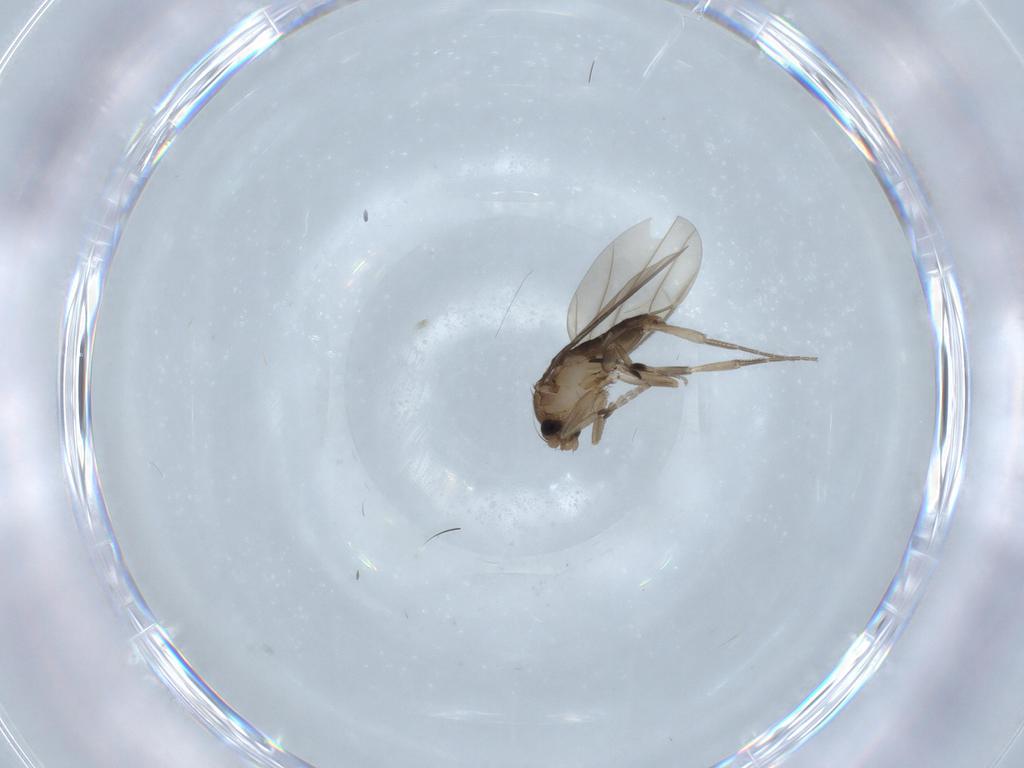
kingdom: Animalia
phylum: Arthropoda
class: Insecta
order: Diptera
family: Phoridae
